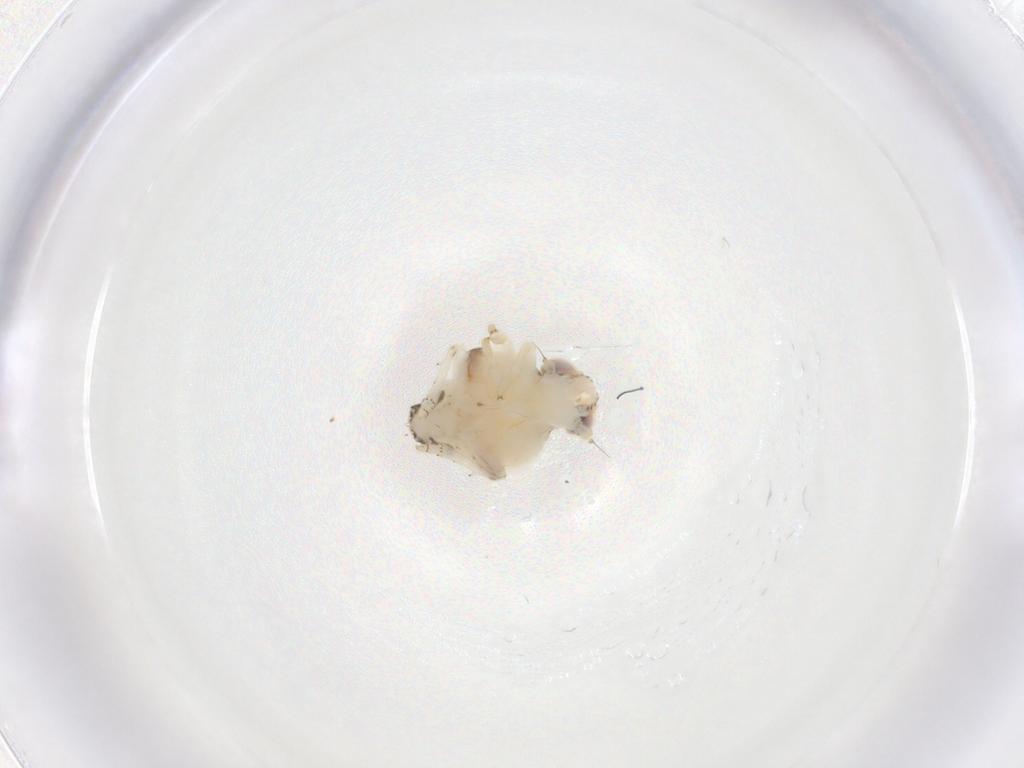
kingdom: Animalia
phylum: Arthropoda
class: Insecta
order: Hemiptera
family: Nogodinidae
